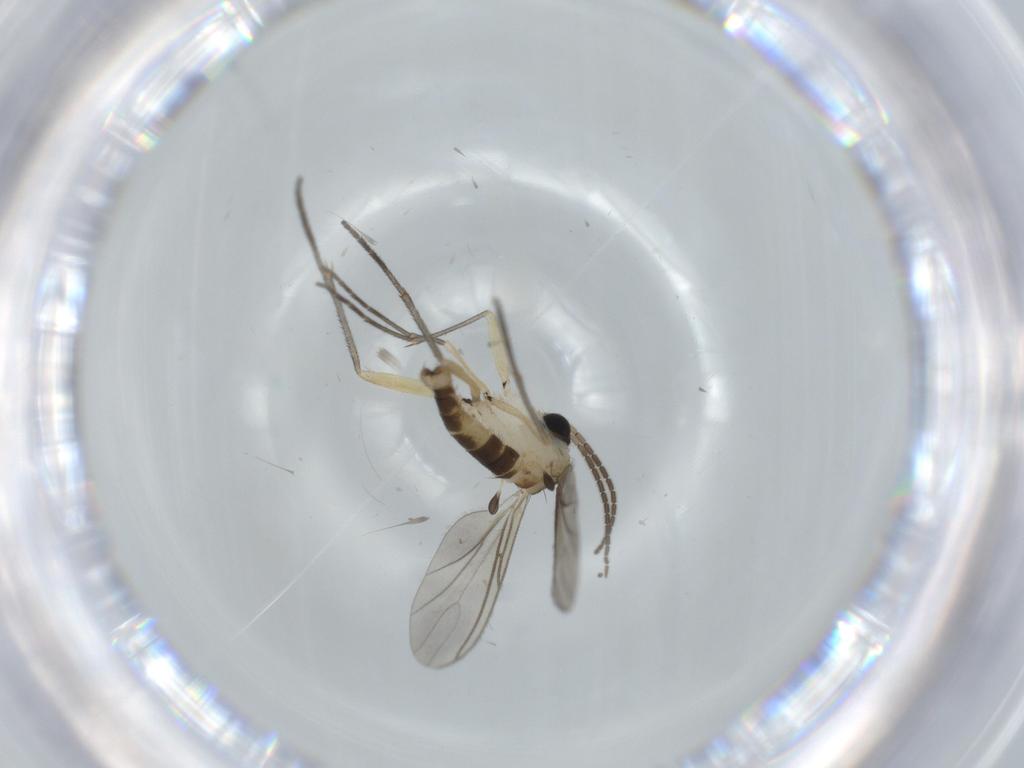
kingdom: Animalia
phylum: Arthropoda
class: Insecta
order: Diptera
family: Sciaridae
